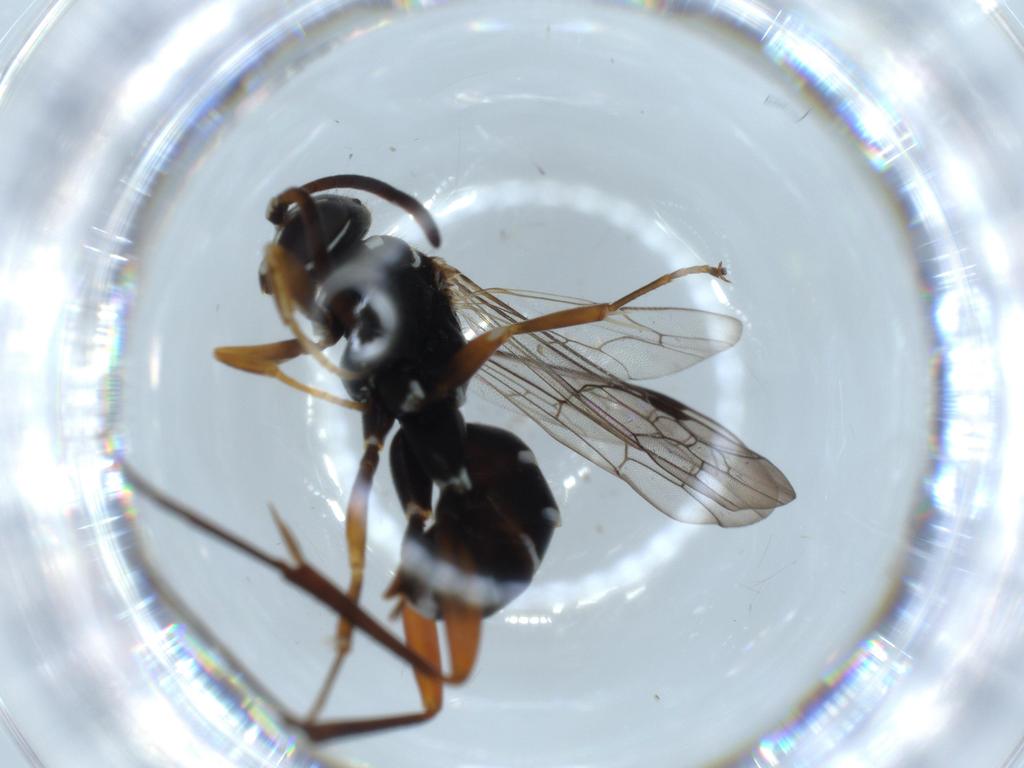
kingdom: Animalia
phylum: Arthropoda
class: Insecta
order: Hymenoptera
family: Pompilidae
